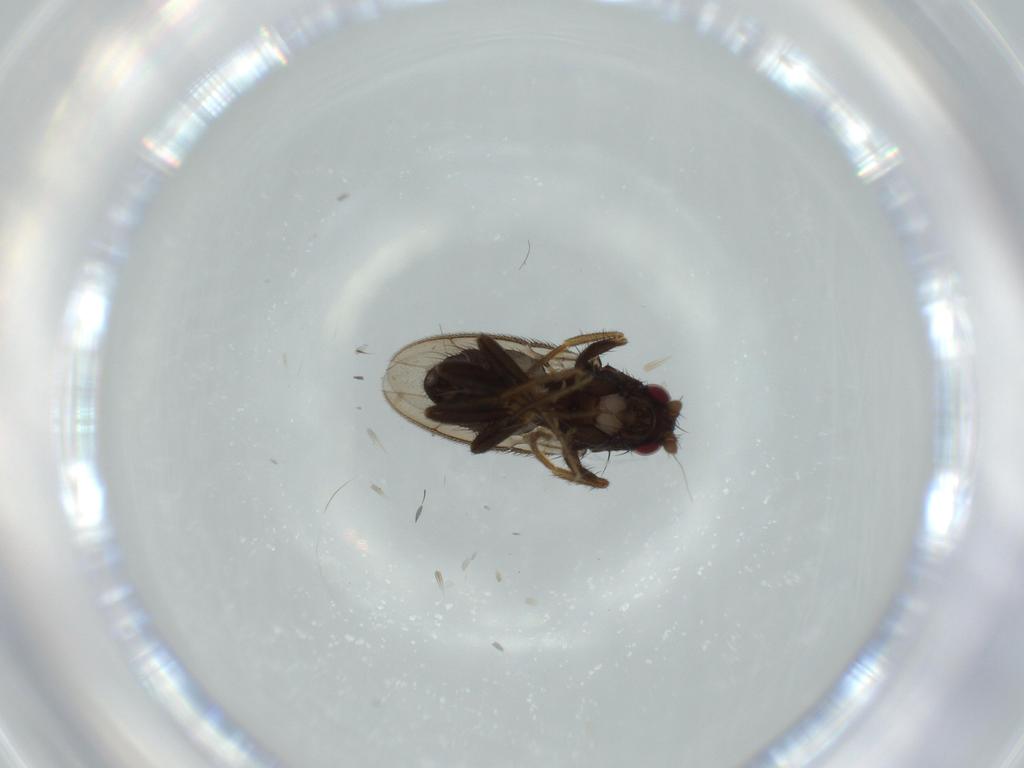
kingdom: Animalia
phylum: Arthropoda
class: Insecta
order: Diptera
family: Sphaeroceridae
